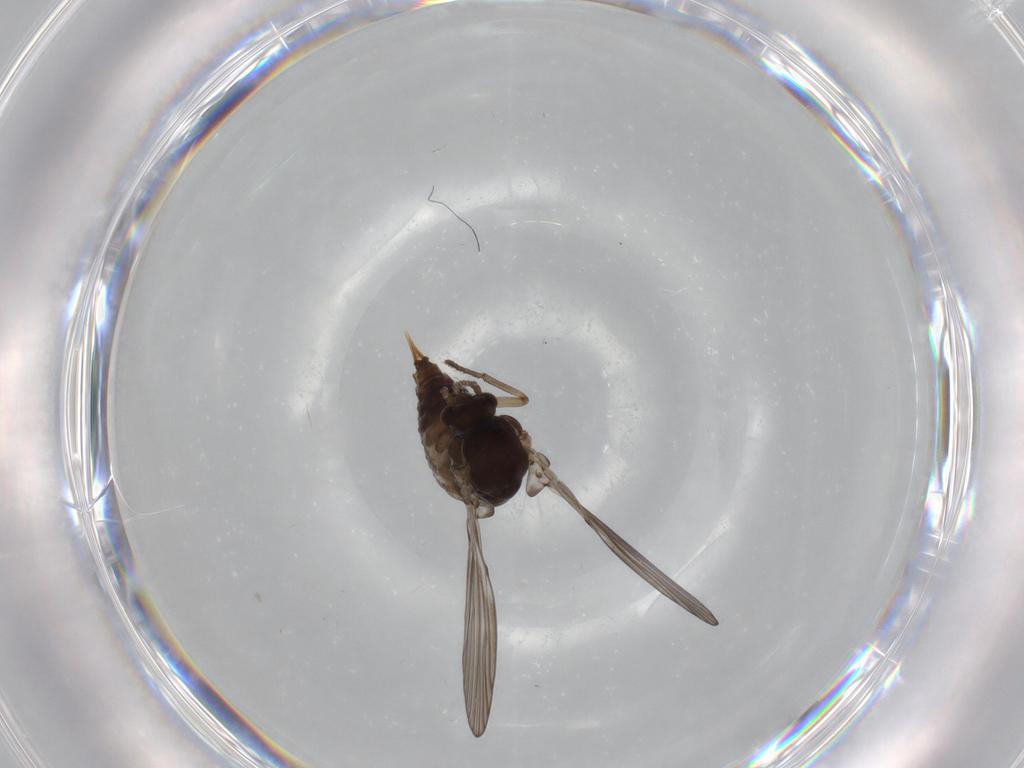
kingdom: Animalia
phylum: Arthropoda
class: Insecta
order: Diptera
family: Psychodidae
